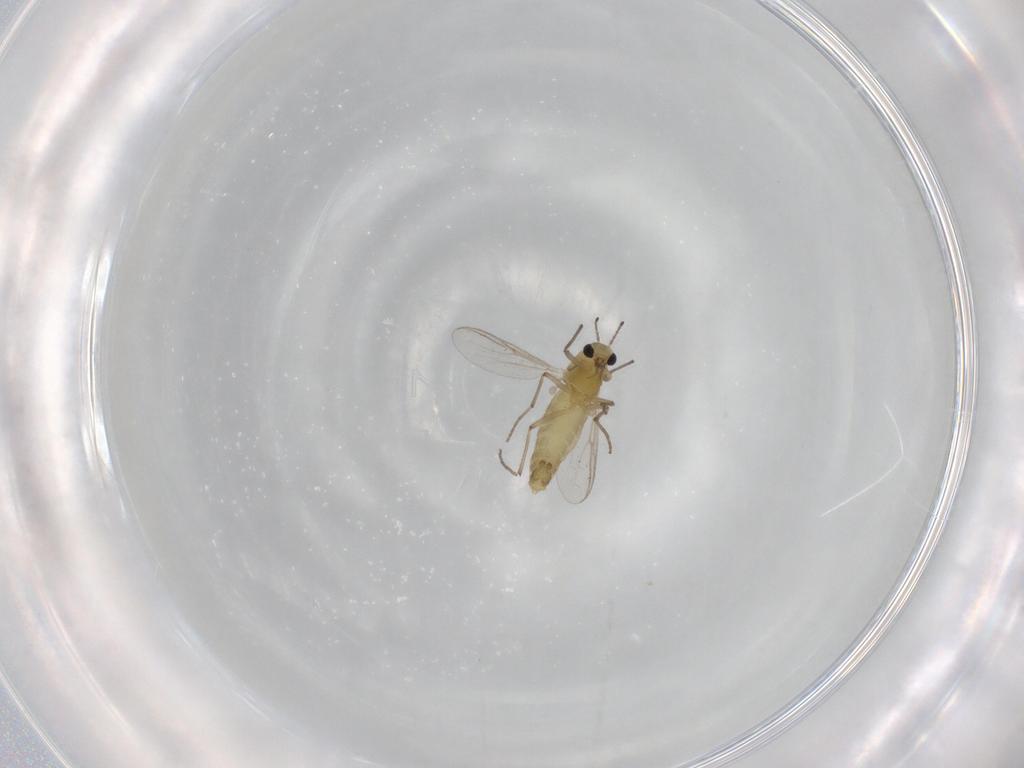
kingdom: Animalia
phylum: Arthropoda
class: Insecta
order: Diptera
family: Chironomidae
